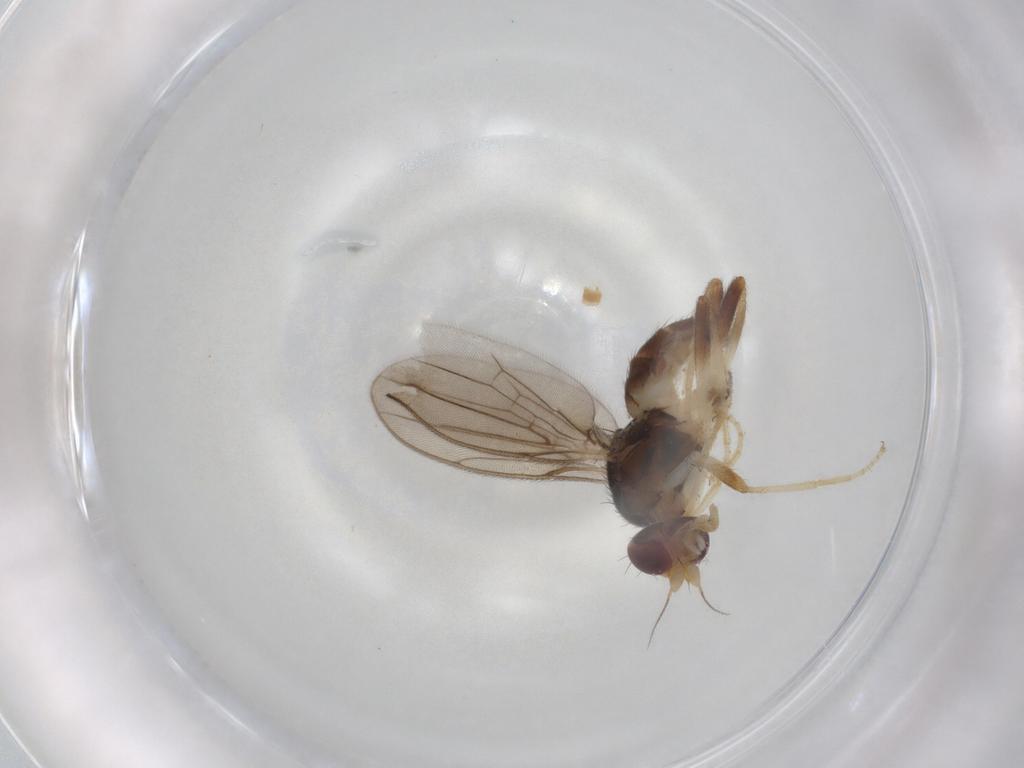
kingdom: Animalia
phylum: Arthropoda
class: Insecta
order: Diptera
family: Chloropidae
